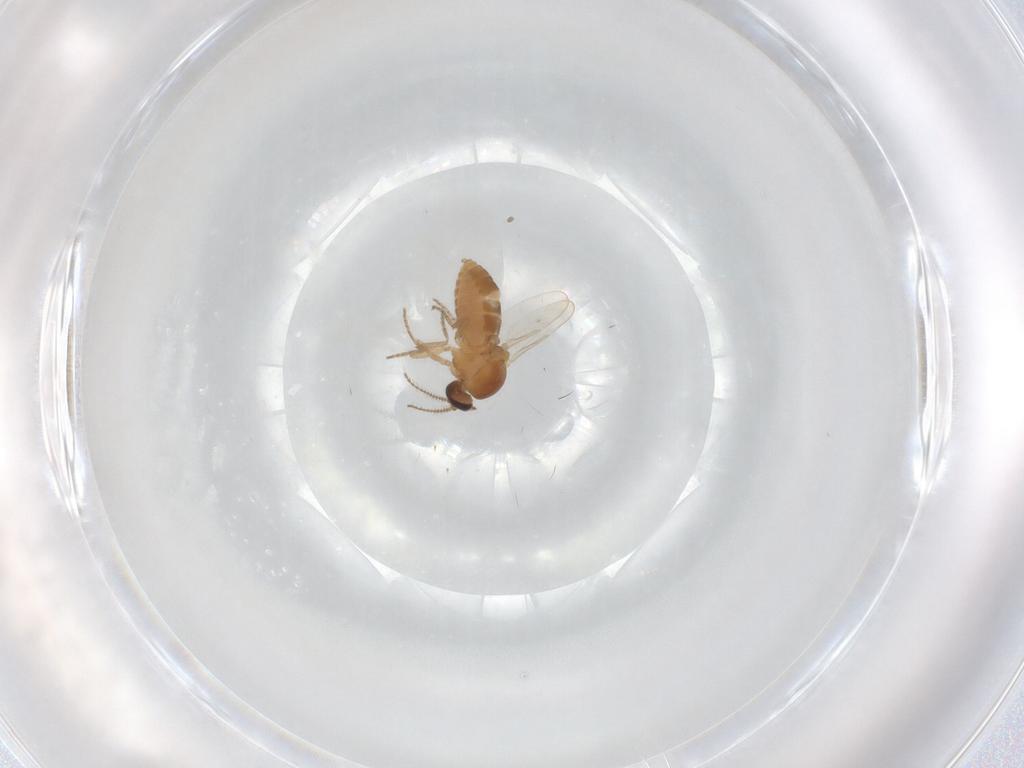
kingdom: Animalia
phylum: Arthropoda
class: Insecta
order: Diptera
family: Ceratopogonidae
